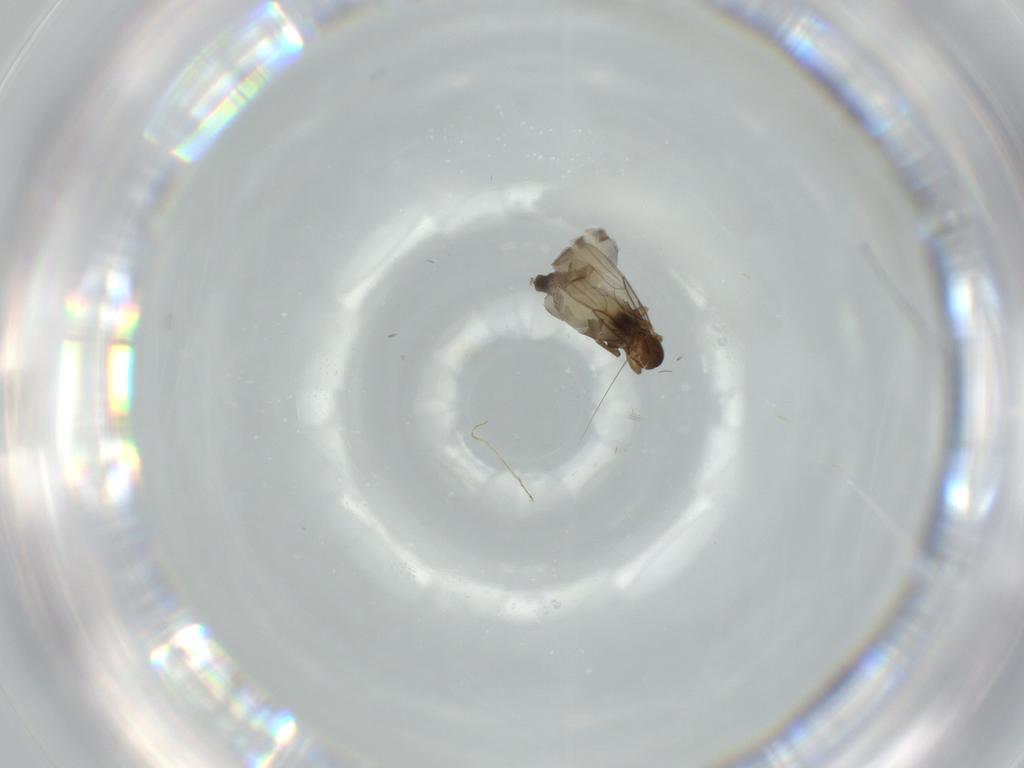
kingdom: Animalia
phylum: Arthropoda
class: Insecta
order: Diptera
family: Phoridae
